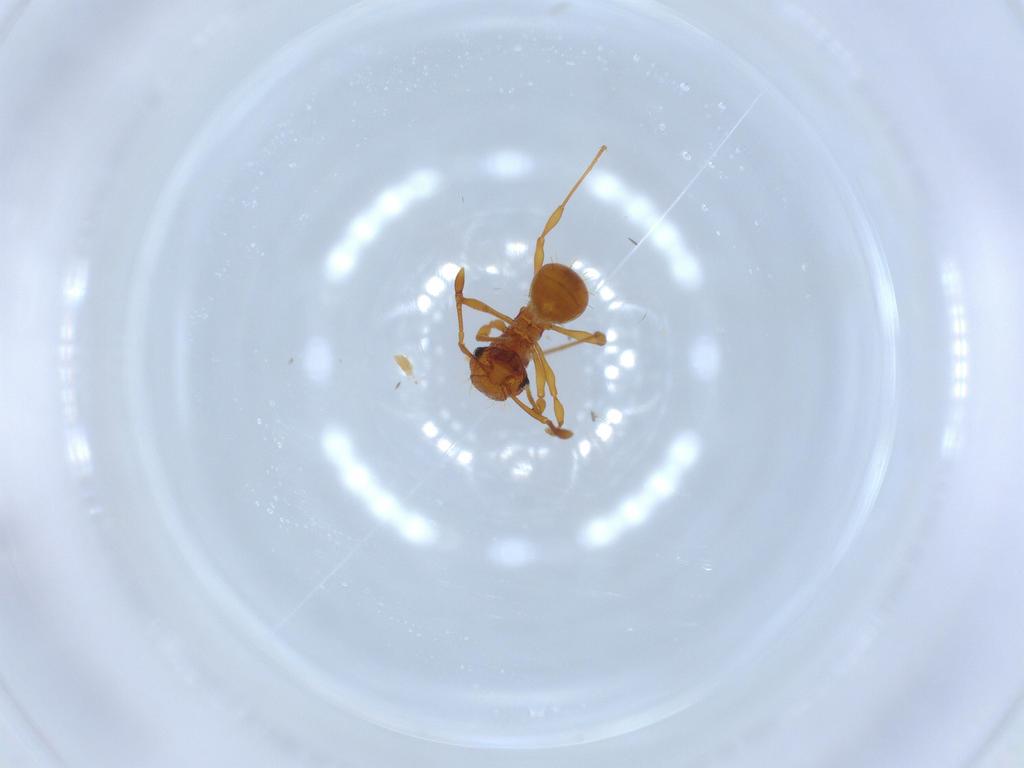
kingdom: Animalia
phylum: Arthropoda
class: Insecta
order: Hymenoptera
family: Formicidae
